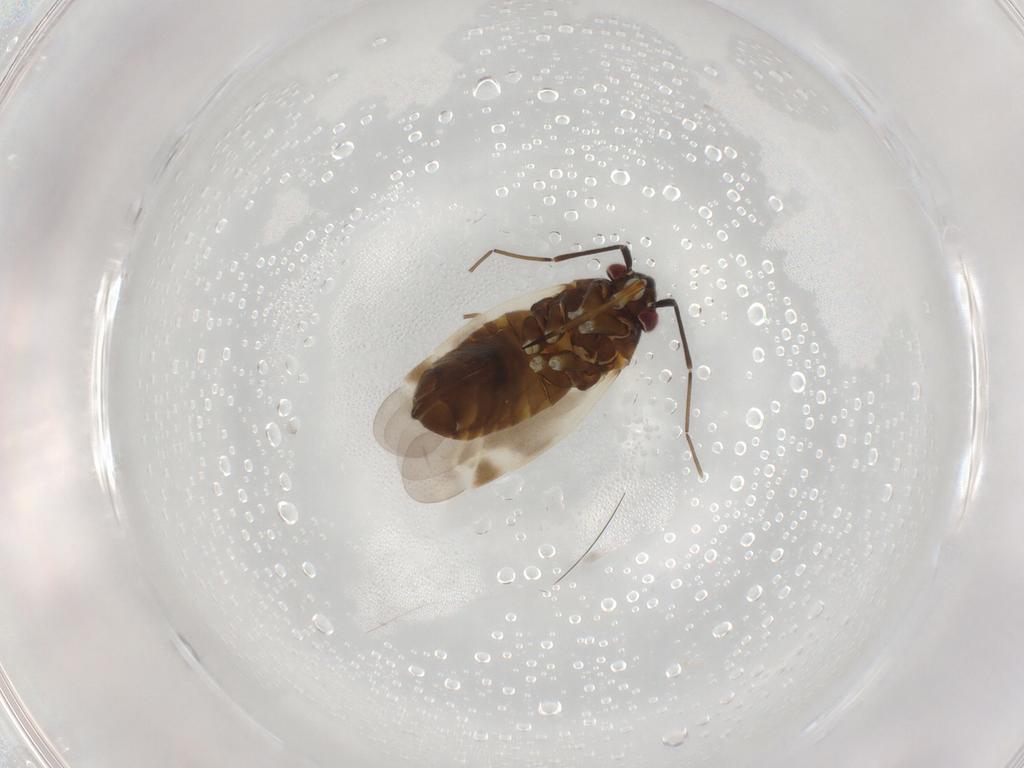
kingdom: Animalia
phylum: Arthropoda
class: Insecta
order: Hemiptera
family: Miridae
